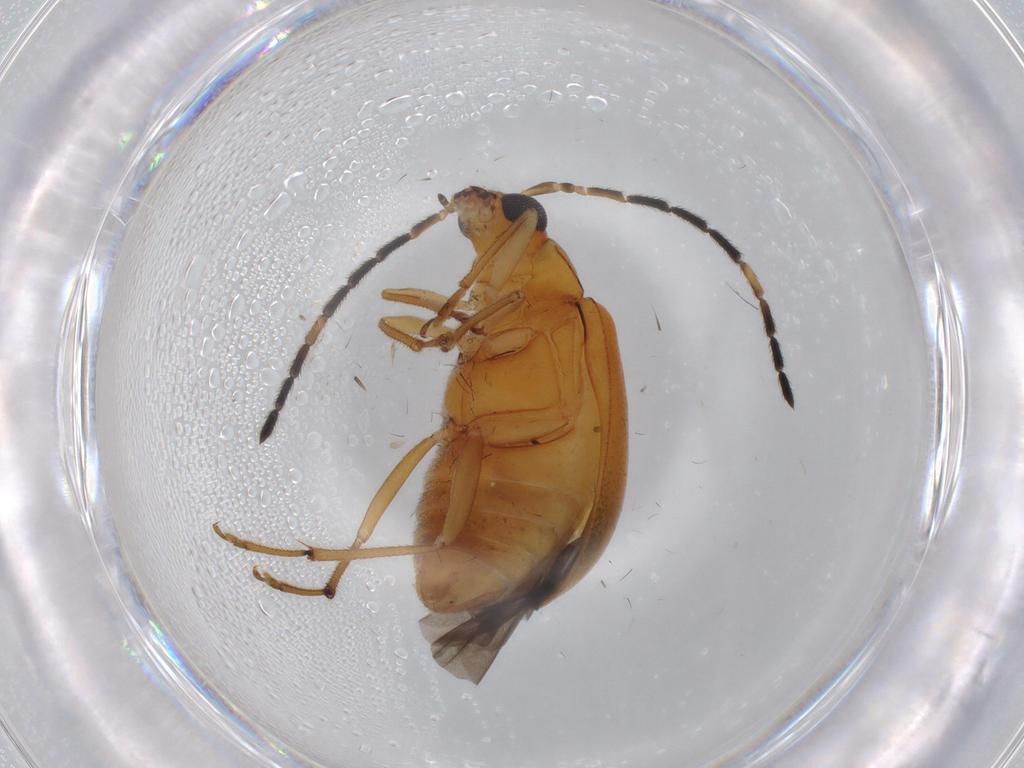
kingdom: Animalia
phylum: Arthropoda
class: Insecta
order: Coleoptera
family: Chrysomelidae
